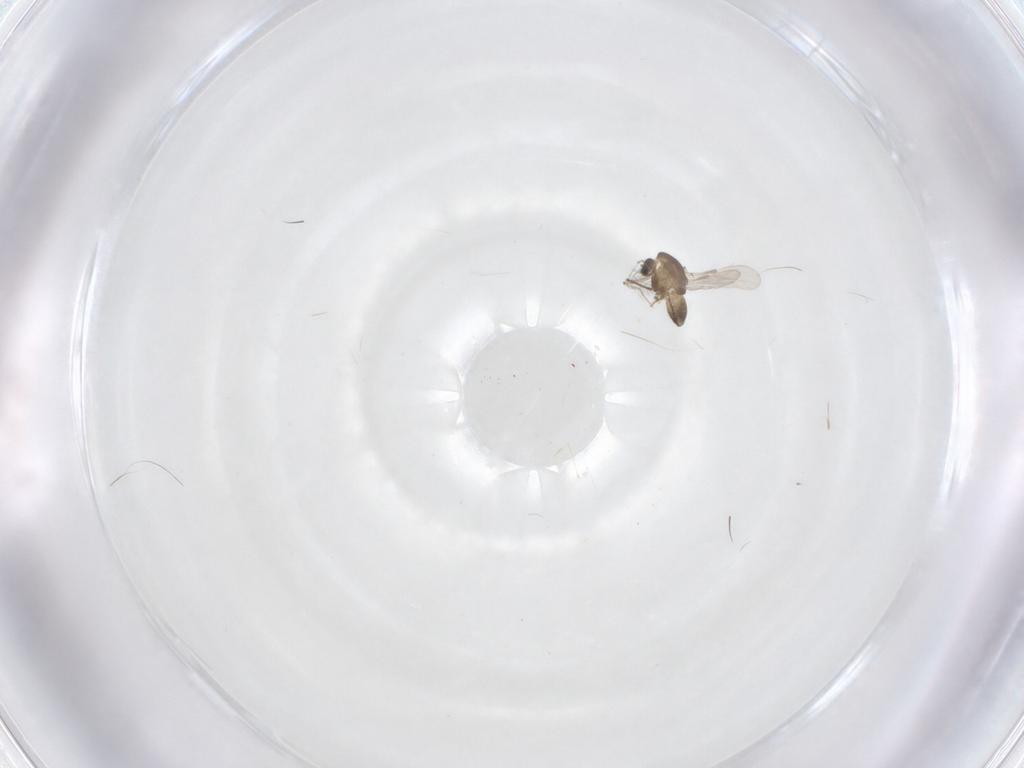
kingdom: Animalia
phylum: Arthropoda
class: Insecta
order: Diptera
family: Chironomidae
